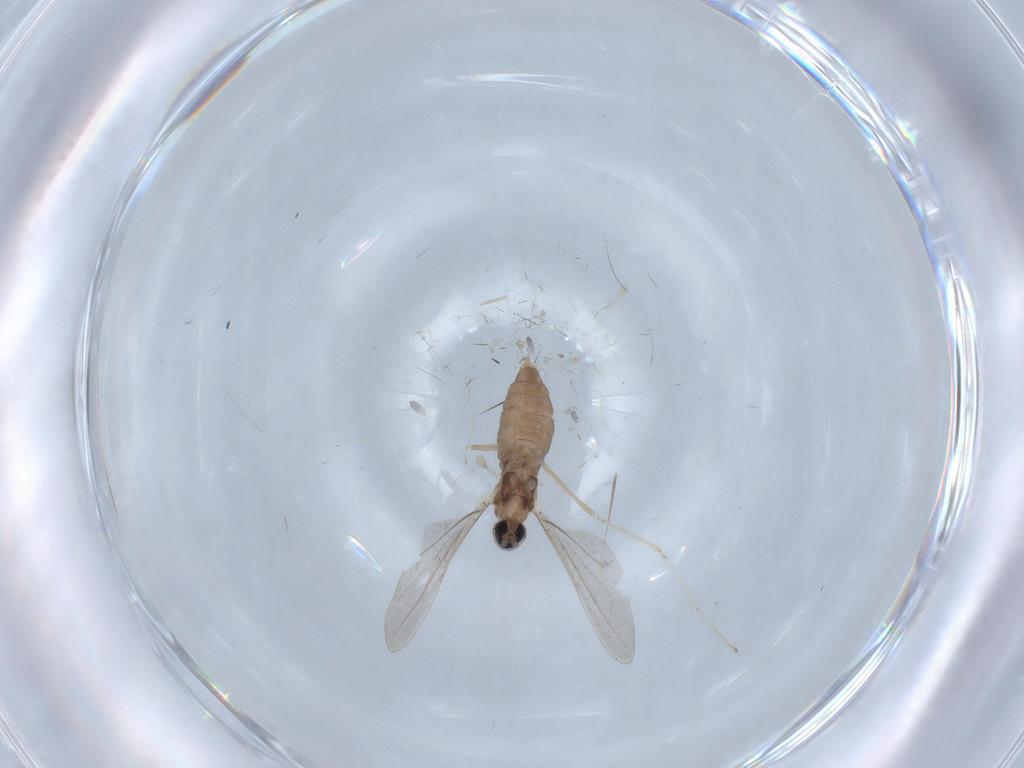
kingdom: Animalia
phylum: Arthropoda
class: Insecta
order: Diptera
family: Cecidomyiidae
